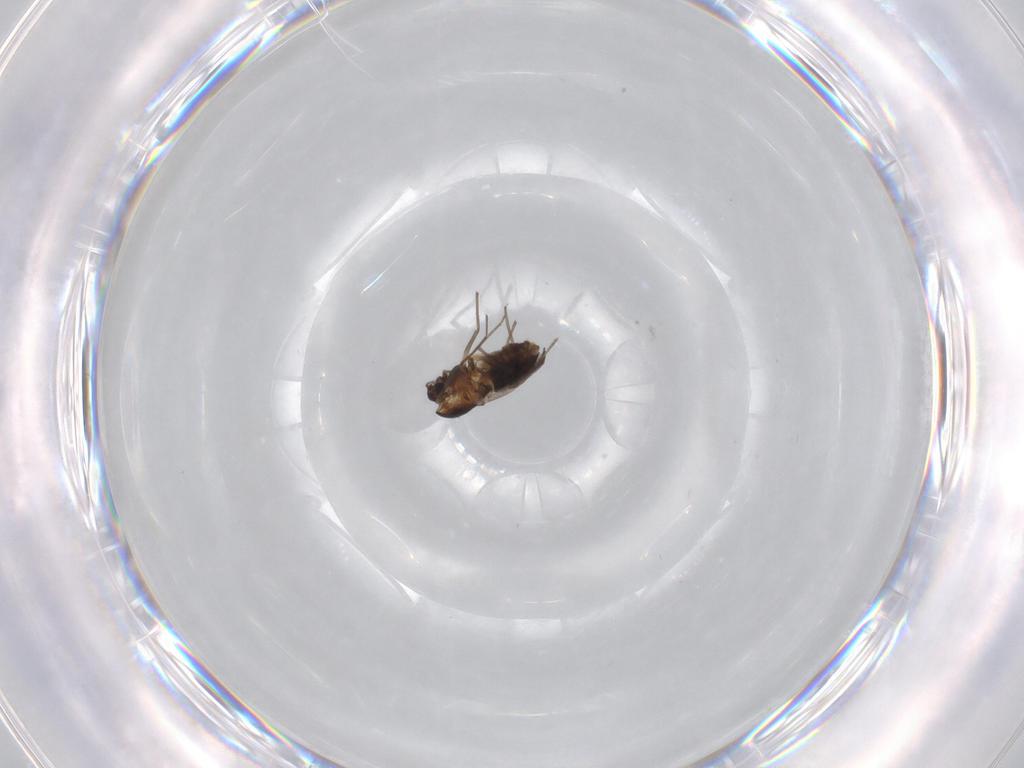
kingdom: Animalia
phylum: Arthropoda
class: Insecta
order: Diptera
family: Chironomidae
